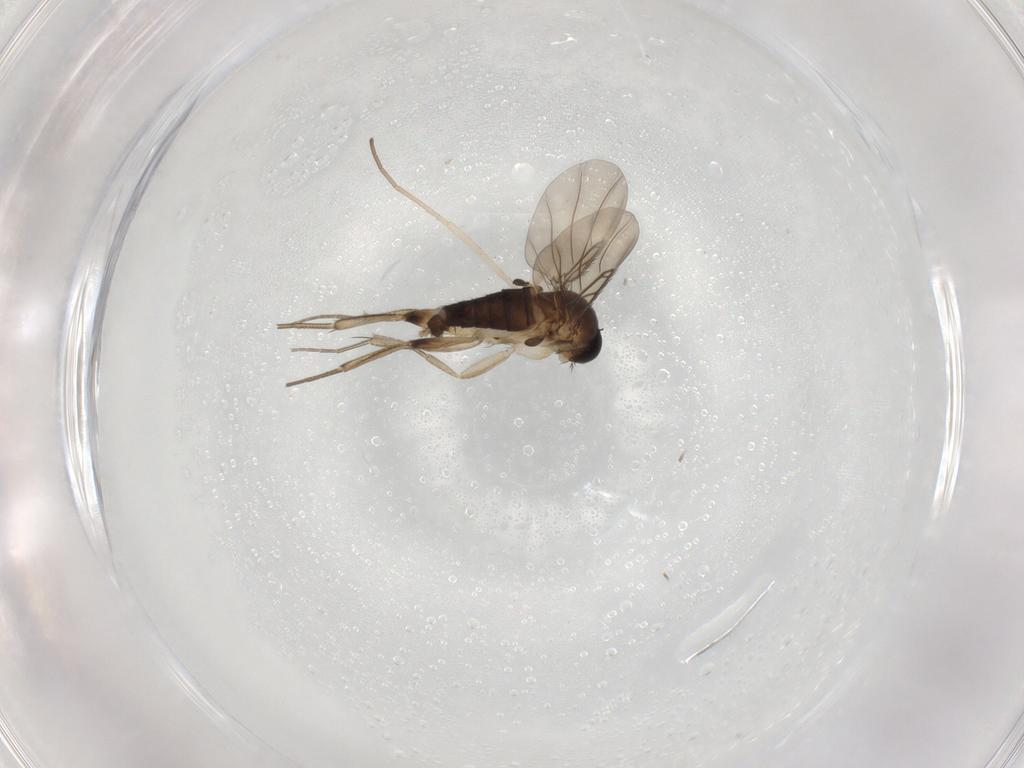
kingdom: Animalia
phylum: Arthropoda
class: Insecta
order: Diptera
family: Phoridae
